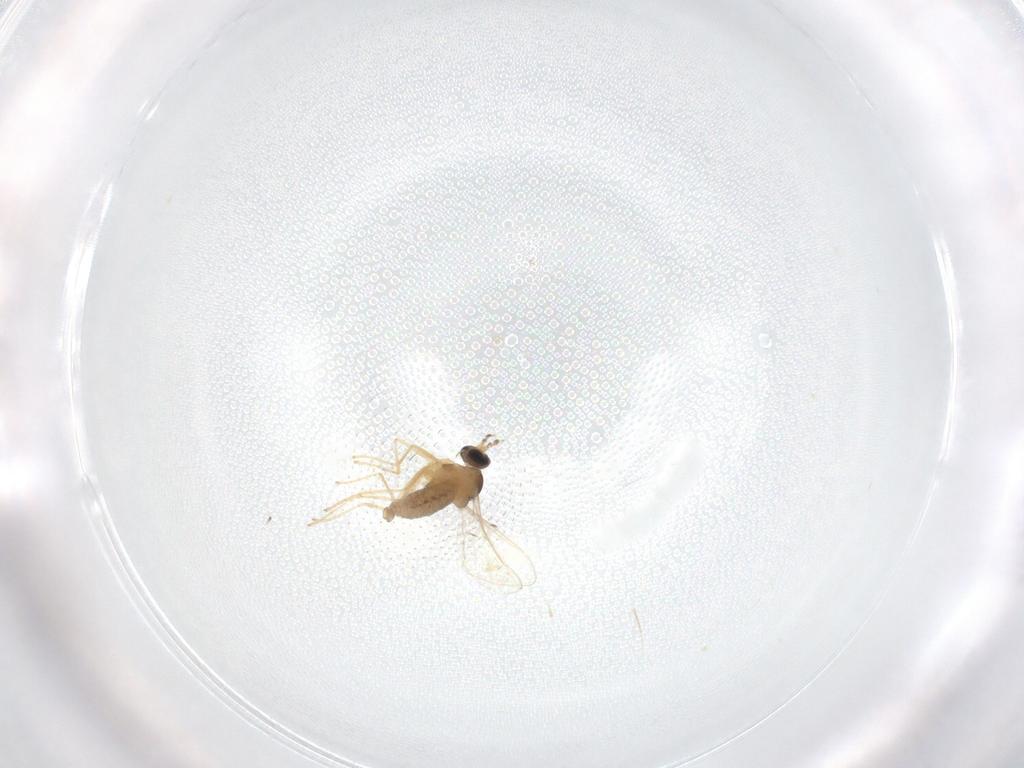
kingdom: Animalia
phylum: Arthropoda
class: Insecta
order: Diptera
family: Cecidomyiidae
